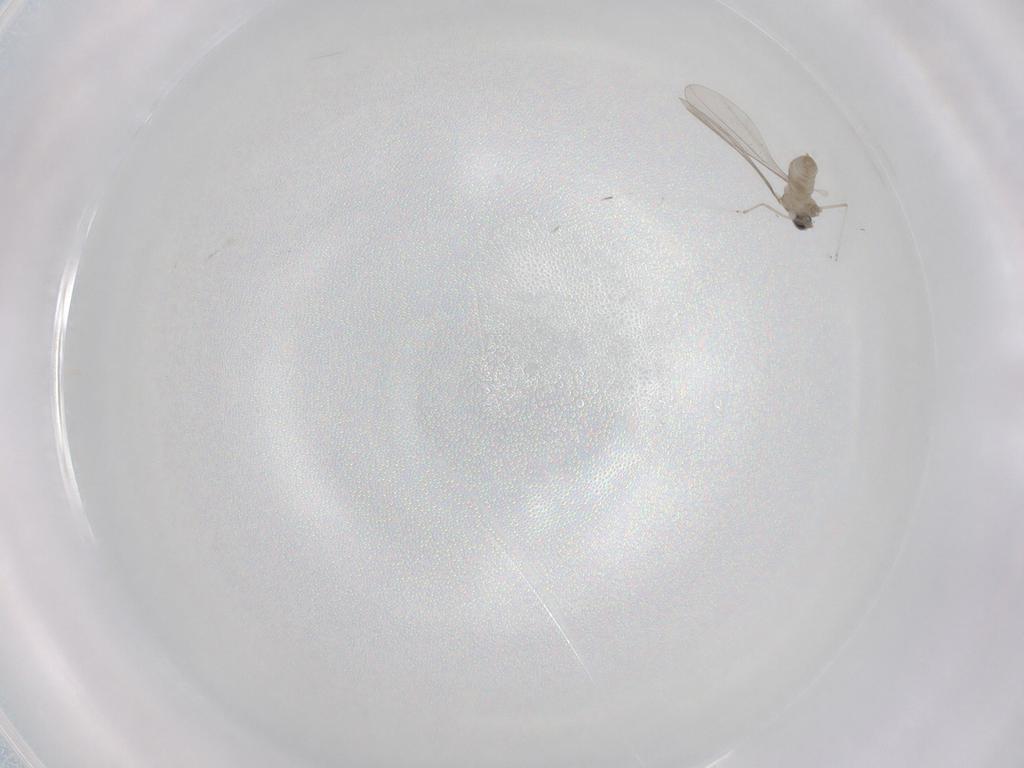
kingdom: Animalia
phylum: Arthropoda
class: Insecta
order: Diptera
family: Cecidomyiidae
